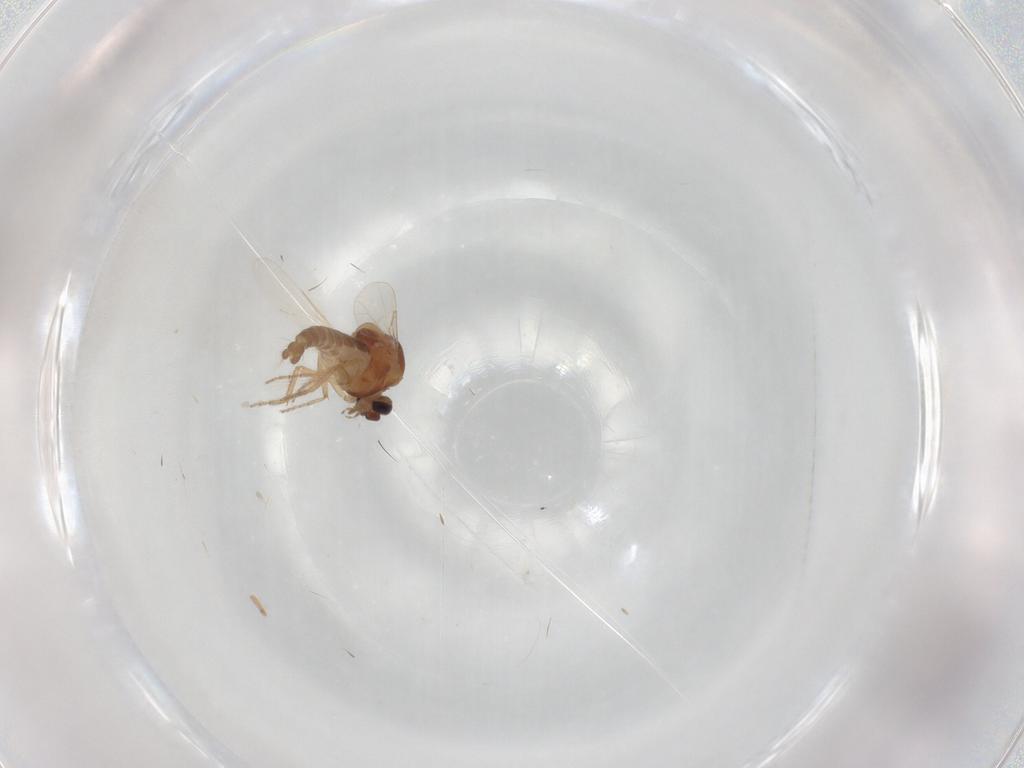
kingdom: Animalia
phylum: Arthropoda
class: Insecta
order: Diptera
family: Ceratopogonidae
